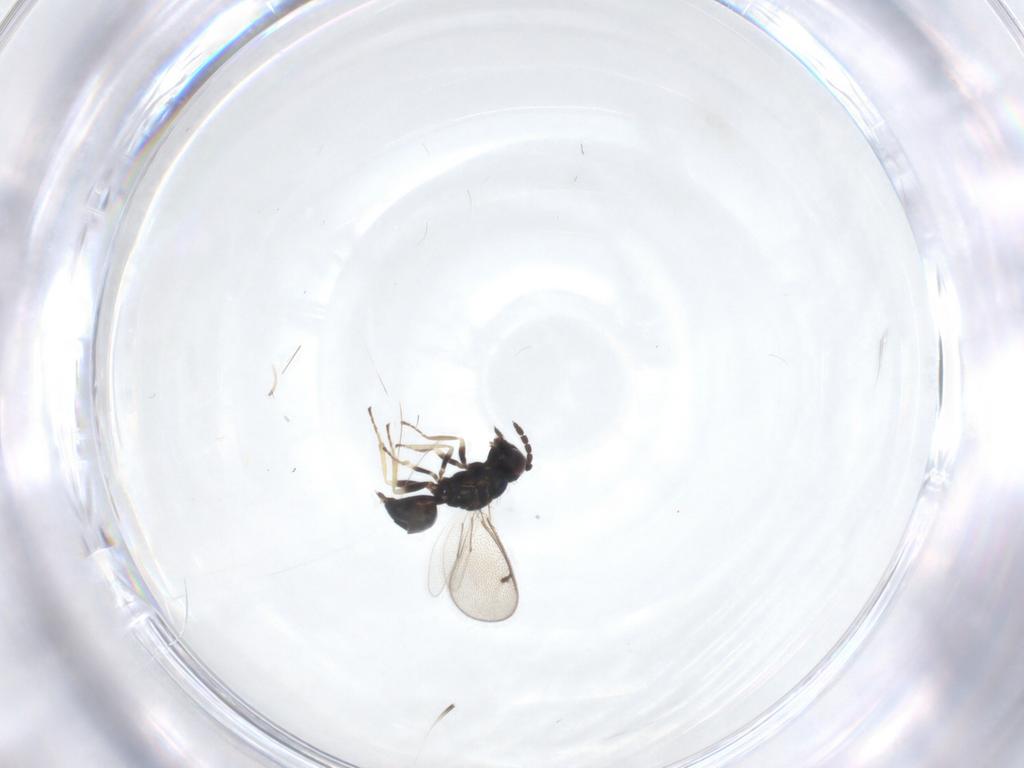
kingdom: Animalia
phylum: Arthropoda
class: Insecta
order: Hymenoptera
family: Eulophidae
